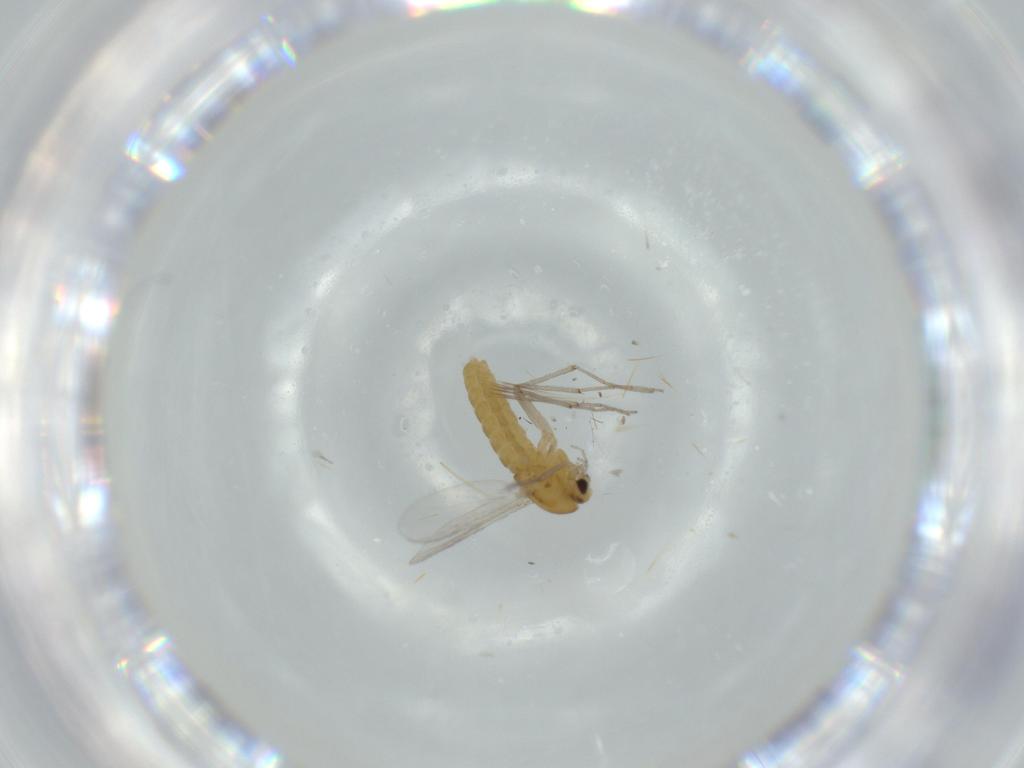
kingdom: Animalia
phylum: Arthropoda
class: Insecta
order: Diptera
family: Chironomidae
